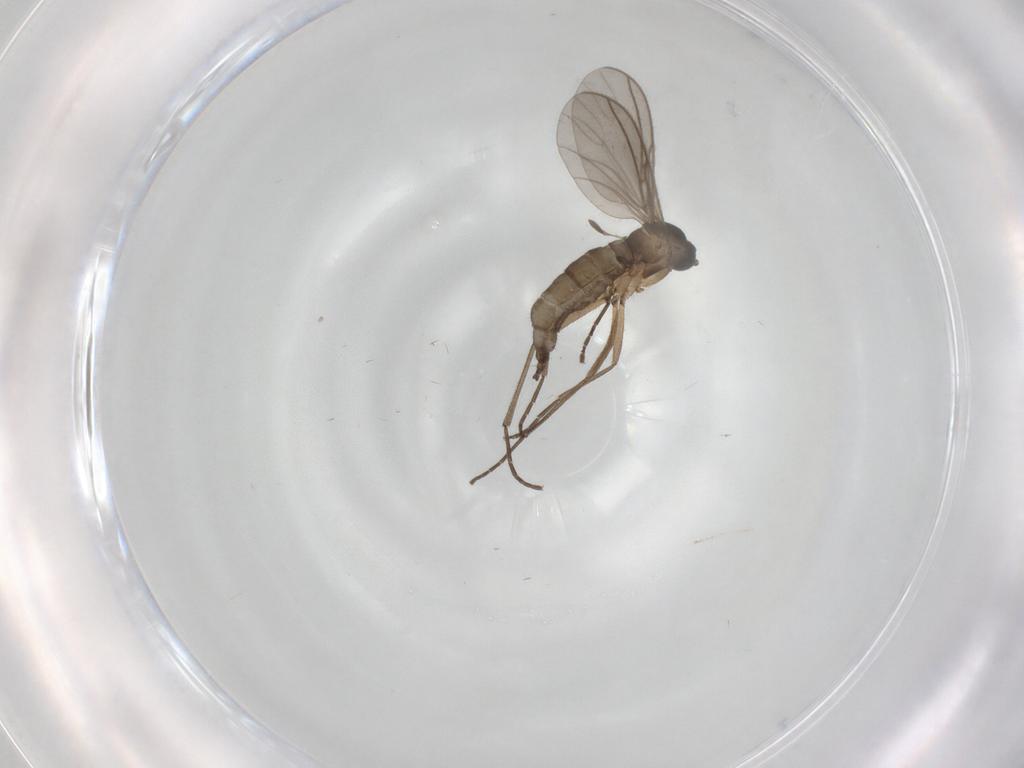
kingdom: Animalia
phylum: Arthropoda
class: Insecta
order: Diptera
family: Sciaridae
